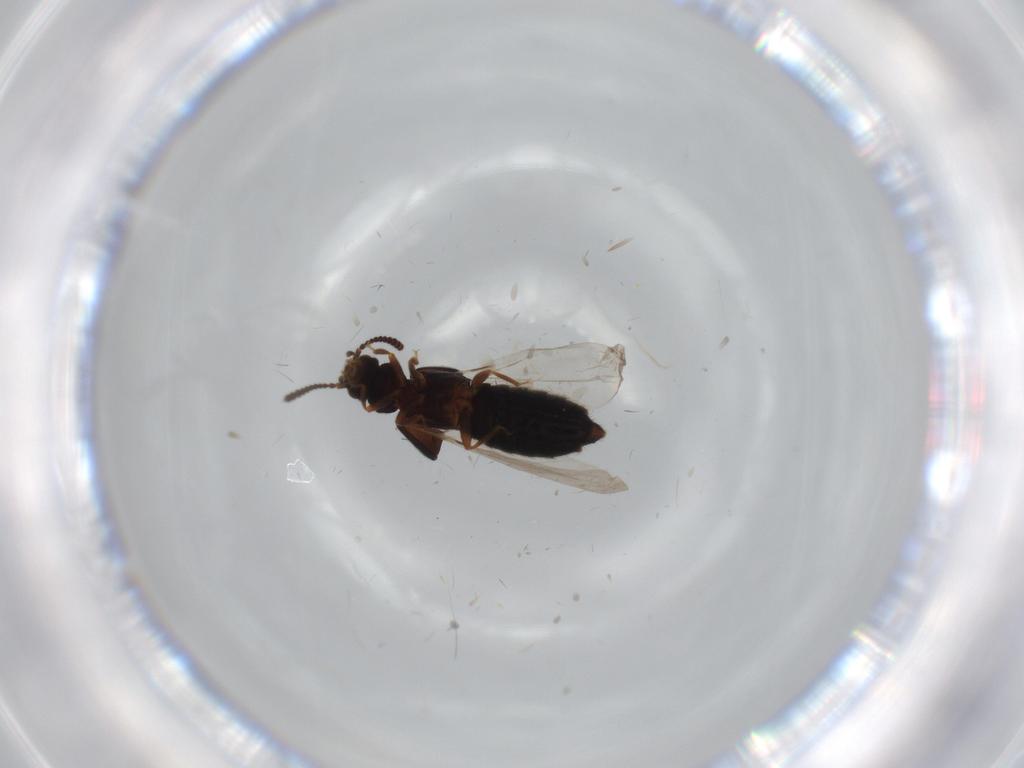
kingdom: Animalia
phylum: Arthropoda
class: Insecta
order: Coleoptera
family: Staphylinidae
